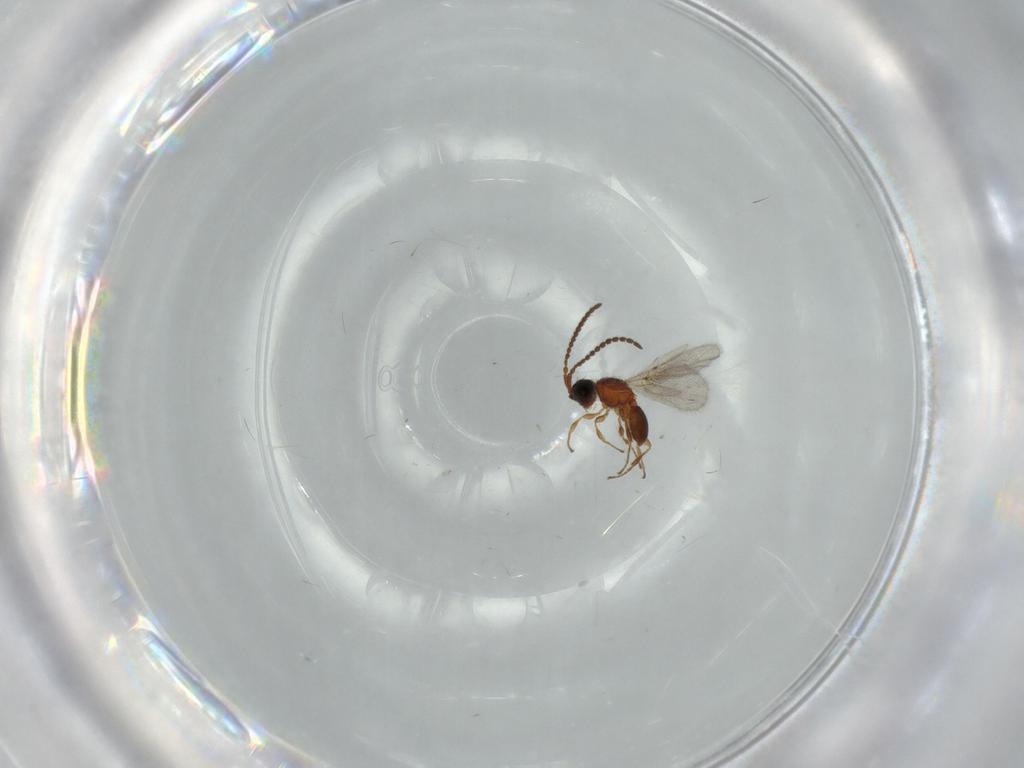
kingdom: Animalia
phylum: Arthropoda
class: Insecta
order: Hymenoptera
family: Diapriidae
